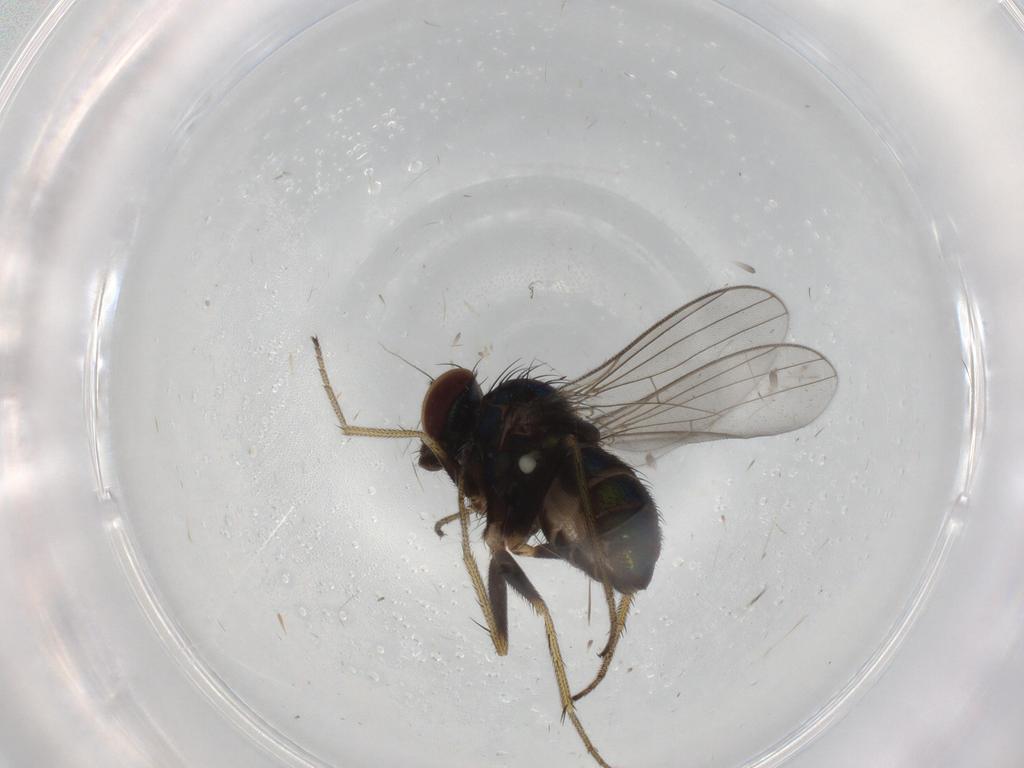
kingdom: Animalia
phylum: Arthropoda
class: Insecta
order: Diptera
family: Dolichopodidae
